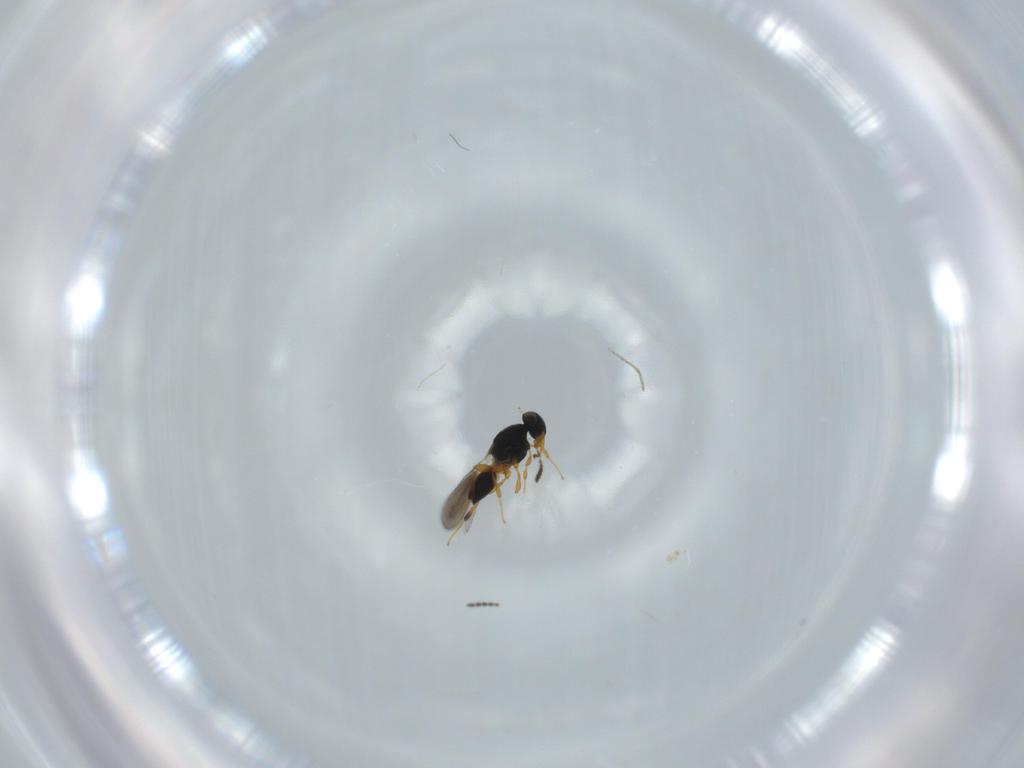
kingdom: Animalia
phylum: Arthropoda
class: Insecta
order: Hymenoptera
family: Platygastridae
